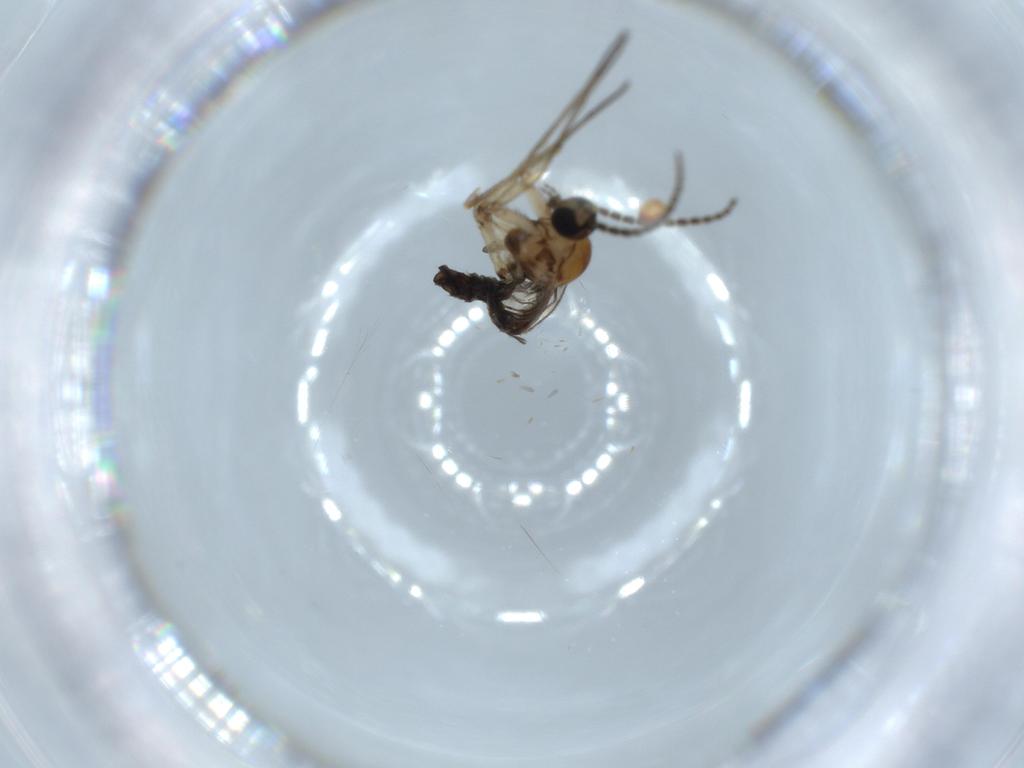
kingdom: Animalia
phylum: Arthropoda
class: Insecta
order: Diptera
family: Sciaridae
